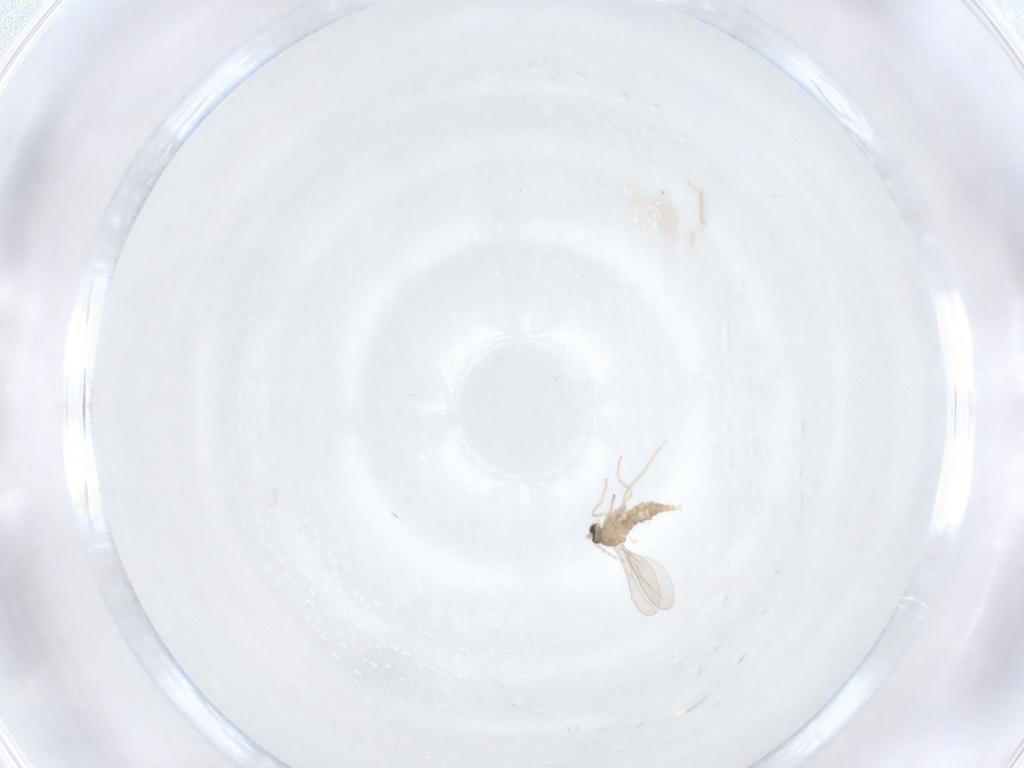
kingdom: Animalia
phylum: Arthropoda
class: Insecta
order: Diptera
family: Cecidomyiidae
